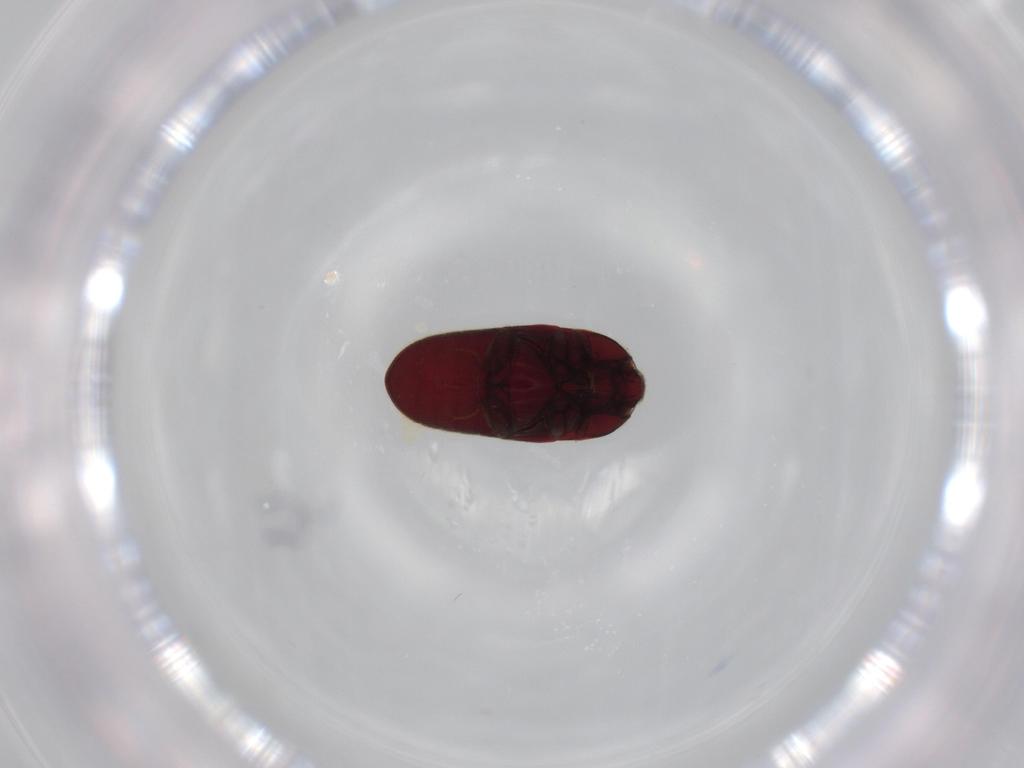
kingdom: Animalia
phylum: Arthropoda
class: Insecta
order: Coleoptera
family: Throscidae
